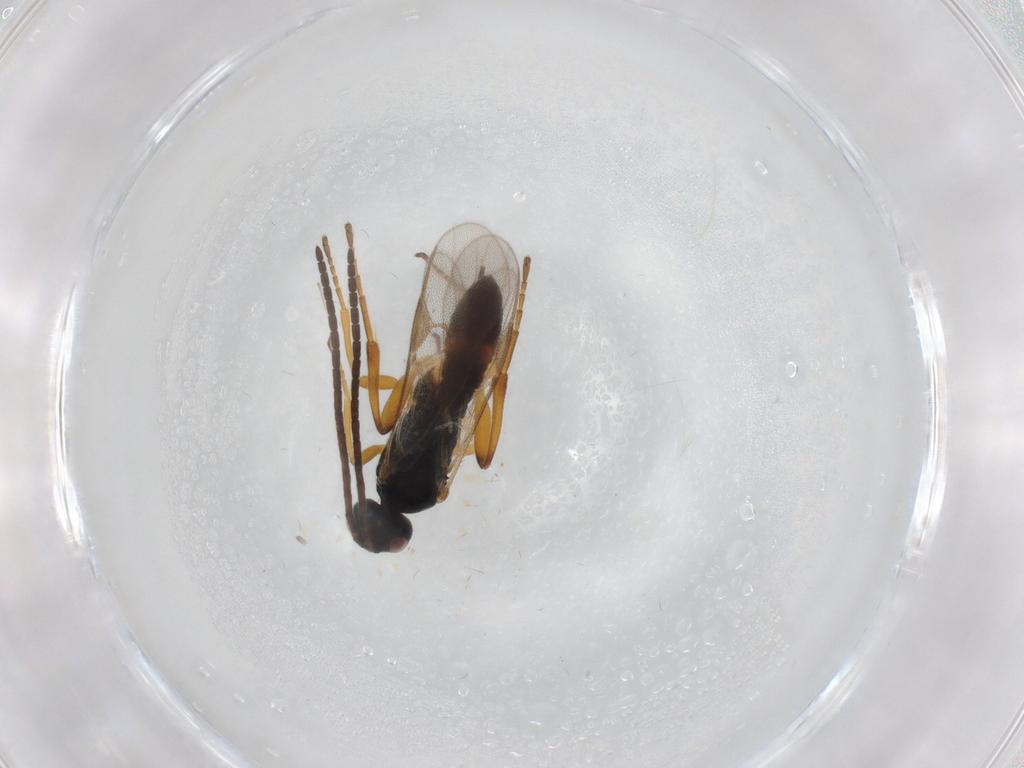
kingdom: Animalia
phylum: Arthropoda
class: Insecta
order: Hymenoptera
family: Braconidae
